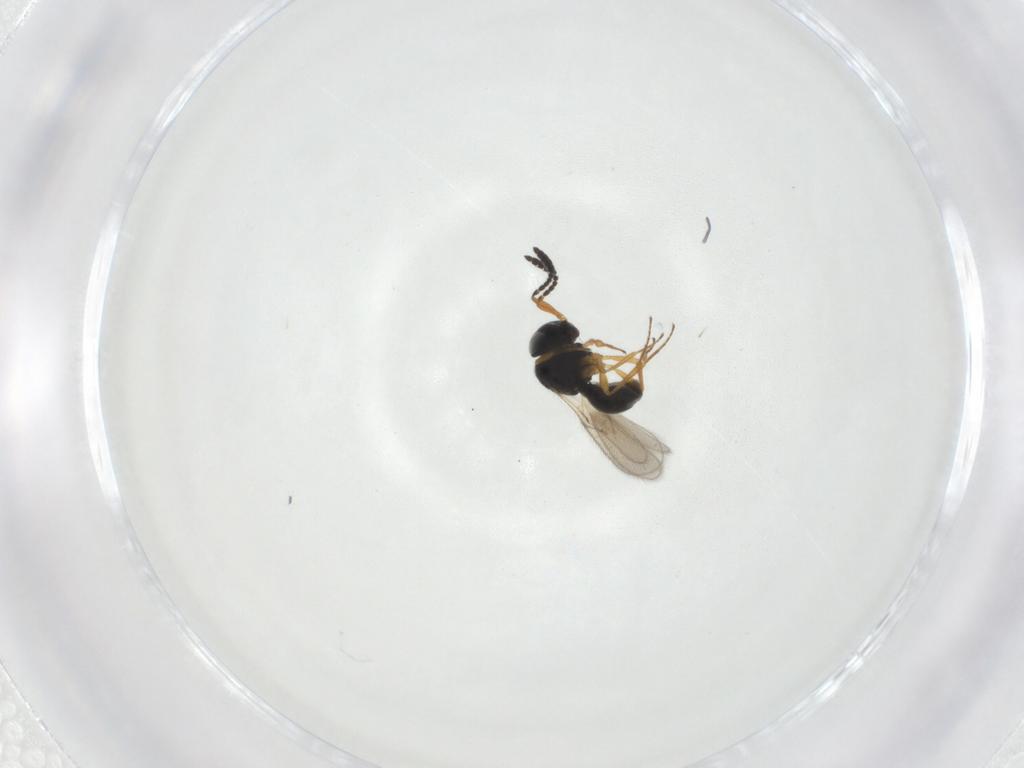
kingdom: Animalia
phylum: Arthropoda
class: Insecta
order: Hymenoptera
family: Scelionidae
